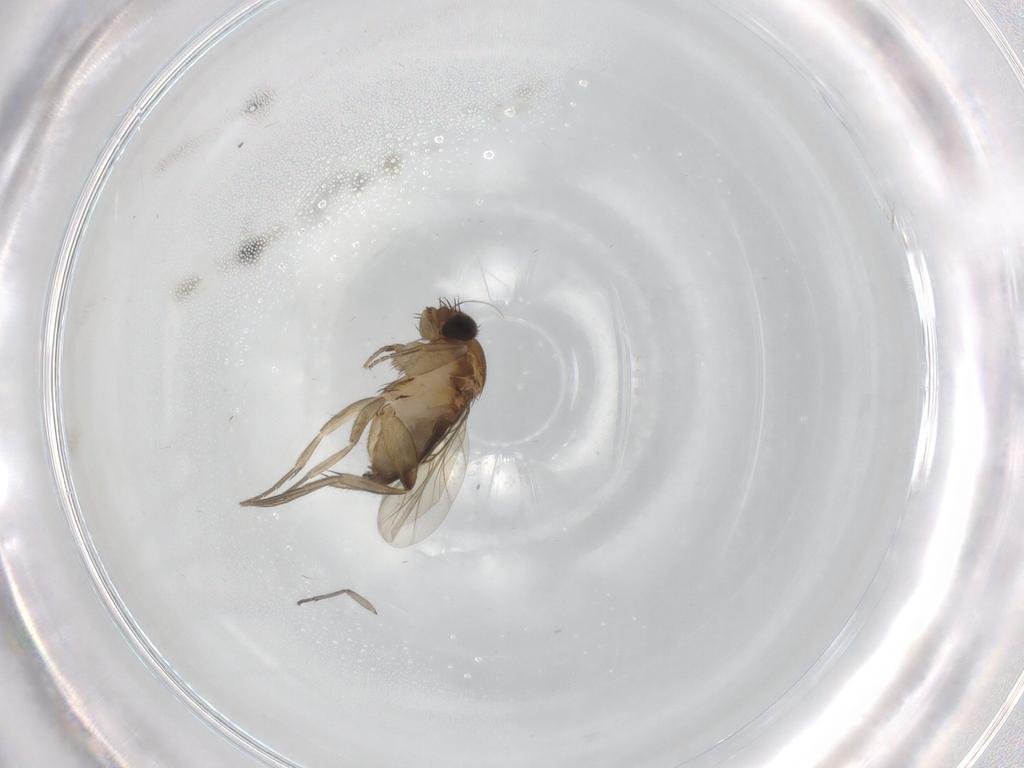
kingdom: Animalia
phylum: Arthropoda
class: Insecta
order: Diptera
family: Phoridae
